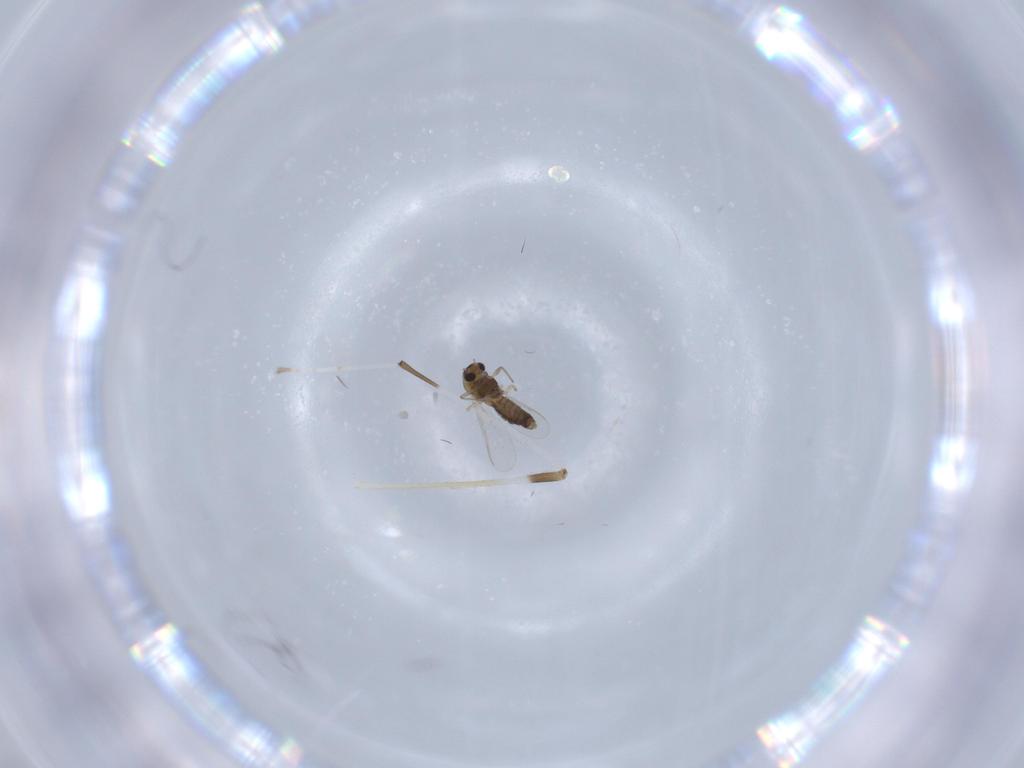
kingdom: Animalia
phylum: Arthropoda
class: Insecta
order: Diptera
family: Chironomidae
